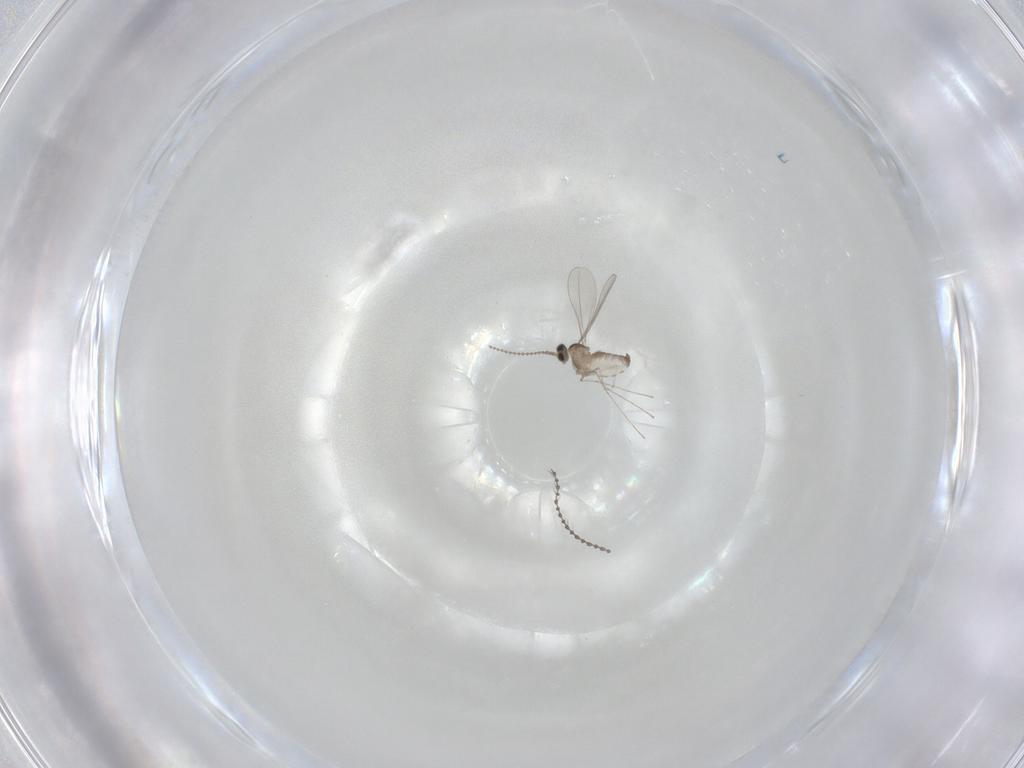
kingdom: Animalia
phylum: Arthropoda
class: Insecta
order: Diptera
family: Cecidomyiidae
